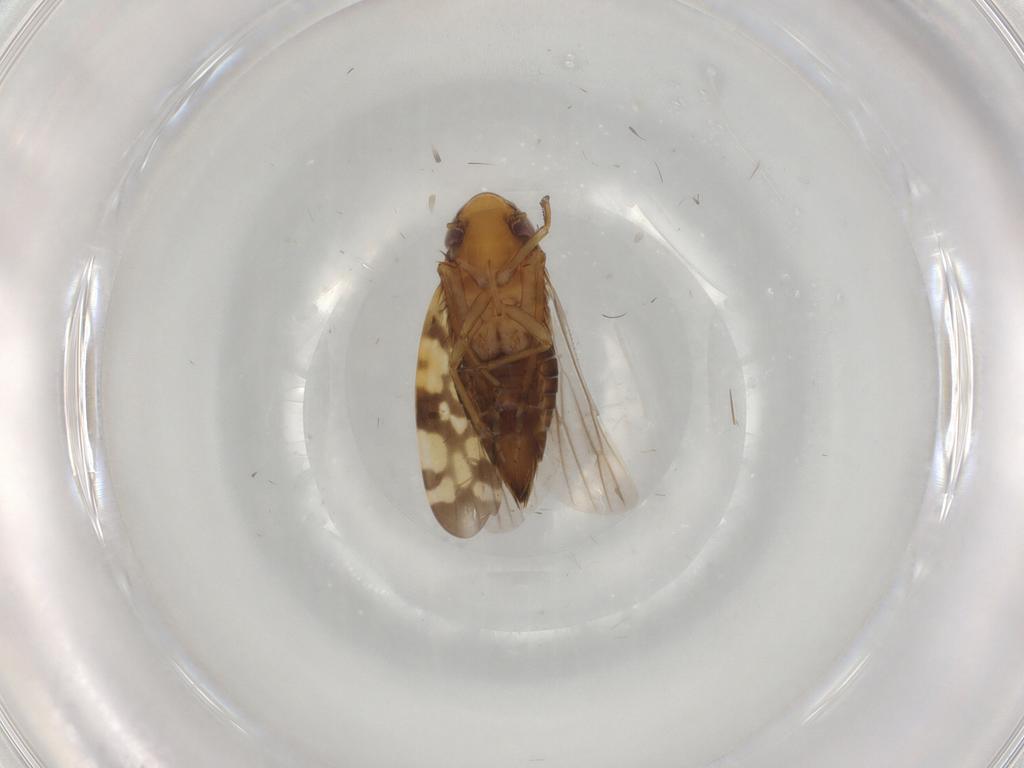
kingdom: Animalia
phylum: Arthropoda
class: Insecta
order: Hemiptera
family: Cicadellidae
